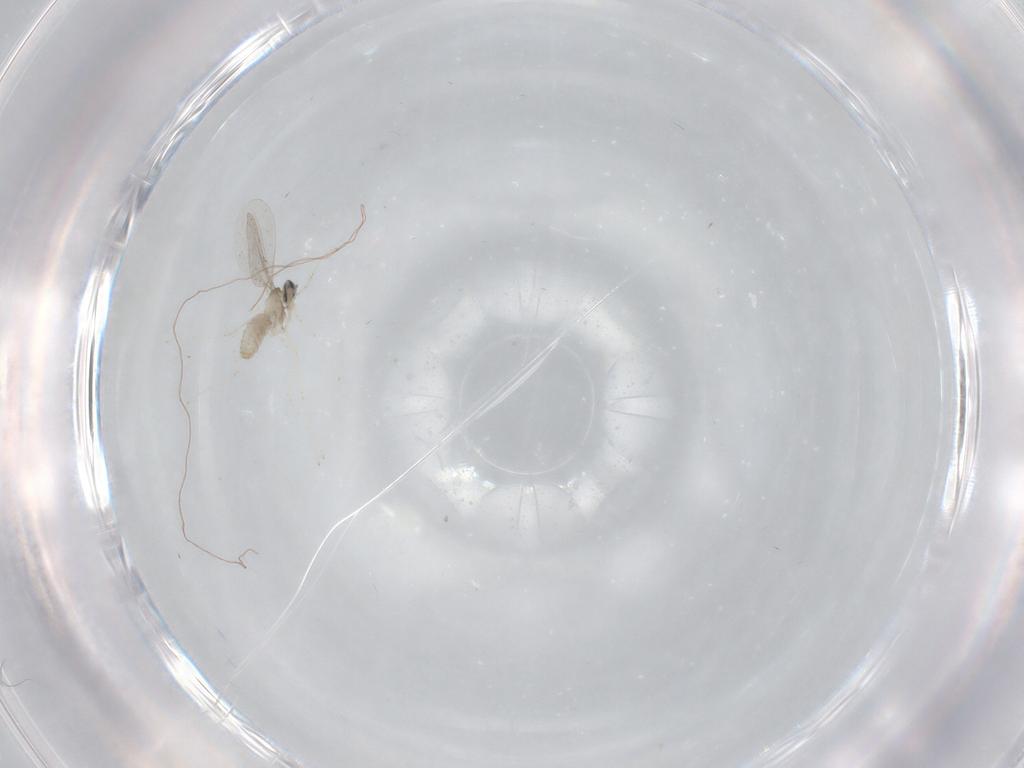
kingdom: Animalia
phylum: Arthropoda
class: Insecta
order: Diptera
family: Cecidomyiidae
